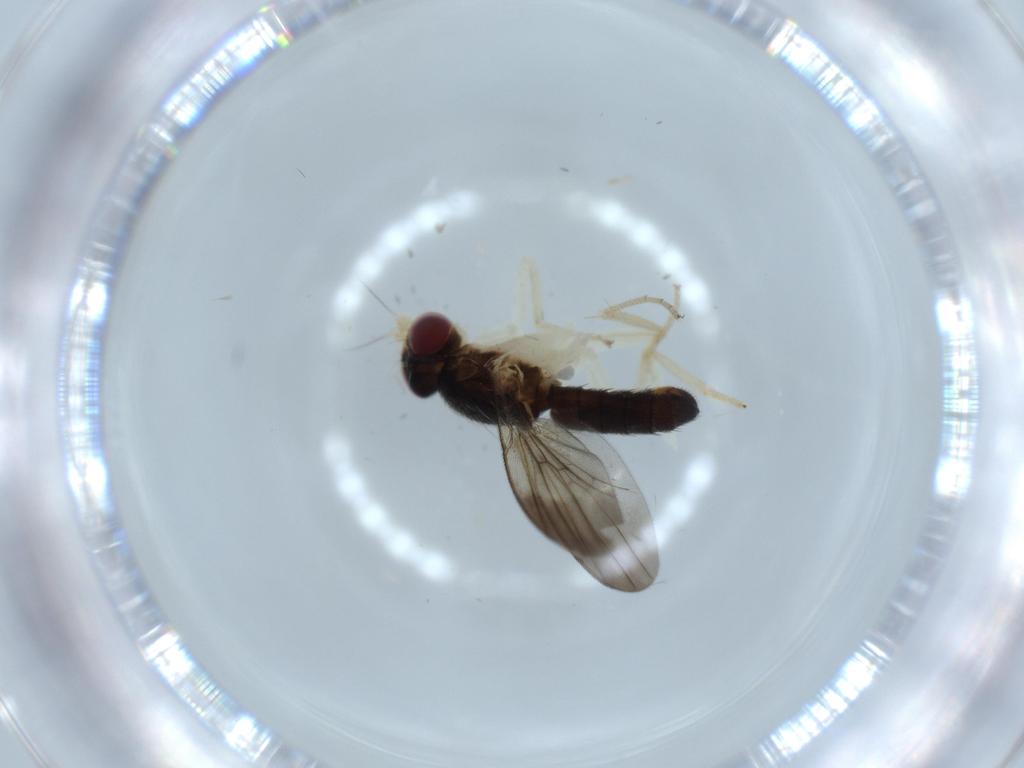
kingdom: Animalia
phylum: Arthropoda
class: Insecta
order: Diptera
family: Chironomidae
